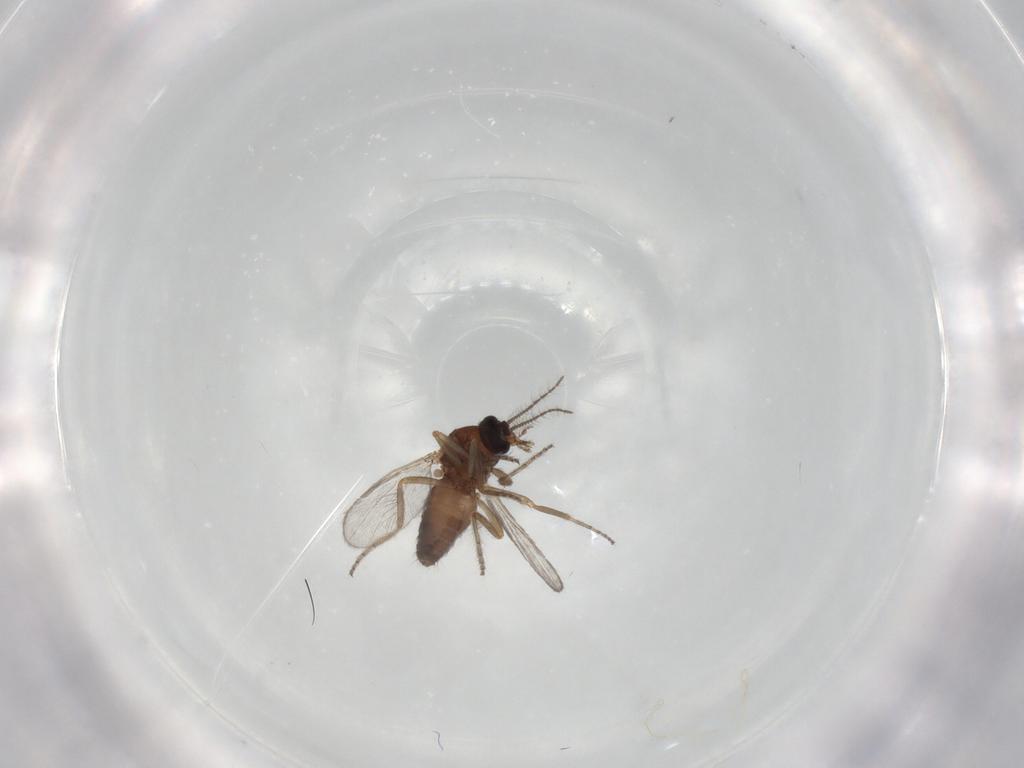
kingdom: Animalia
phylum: Arthropoda
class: Insecta
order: Diptera
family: Ceratopogonidae
